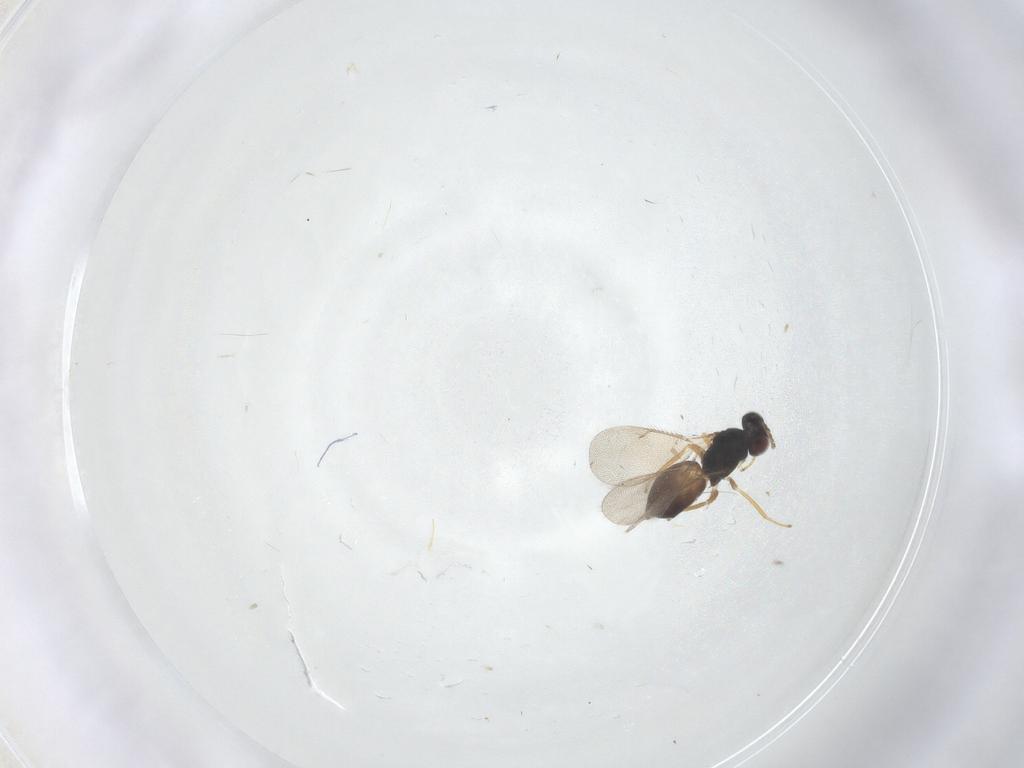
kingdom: Animalia
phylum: Arthropoda
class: Insecta
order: Hymenoptera
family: Eulophidae
